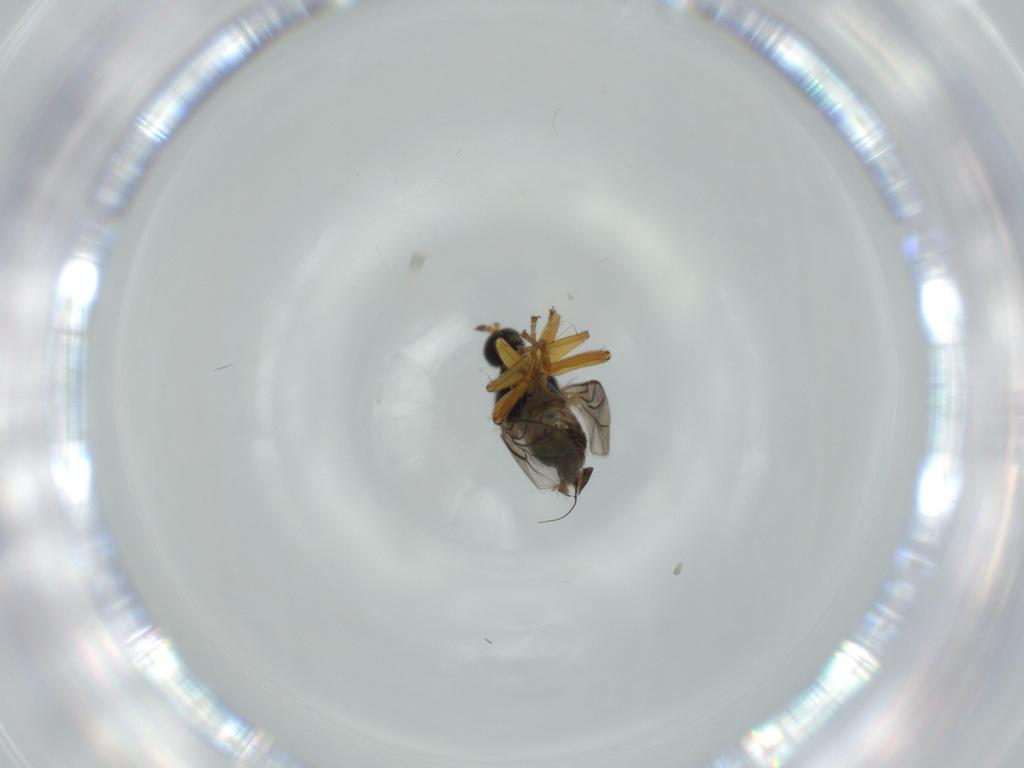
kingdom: Animalia
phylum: Arthropoda
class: Insecta
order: Diptera
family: Hybotidae
